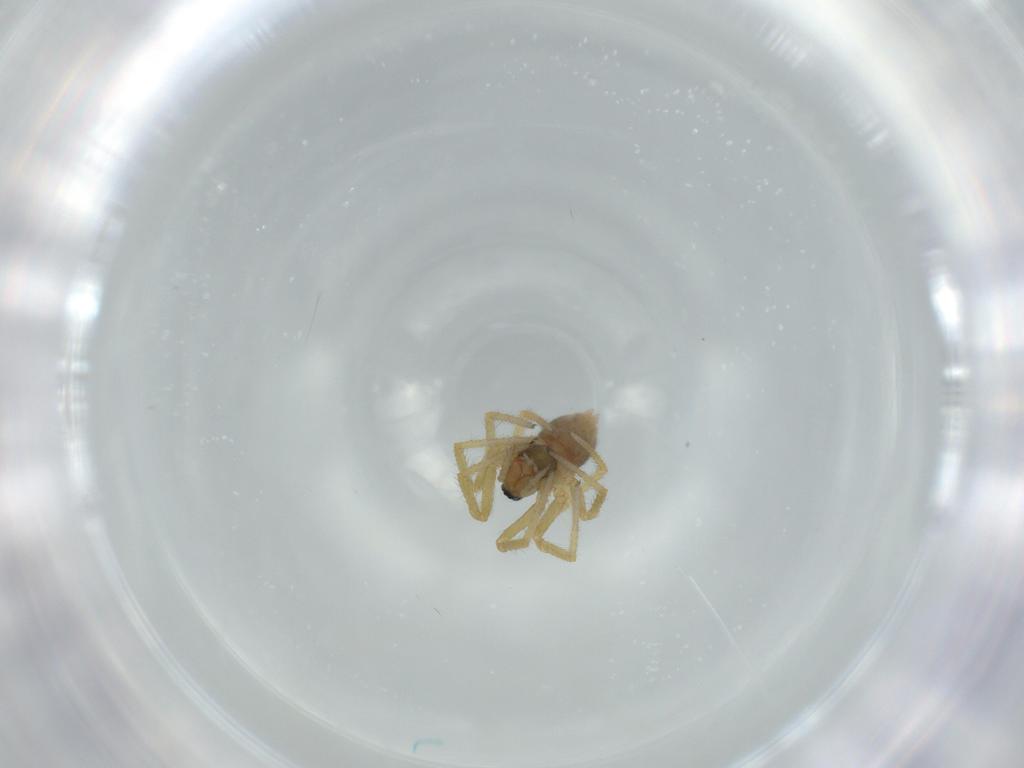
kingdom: Animalia
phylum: Arthropoda
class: Arachnida
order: Araneae
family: Linyphiidae
